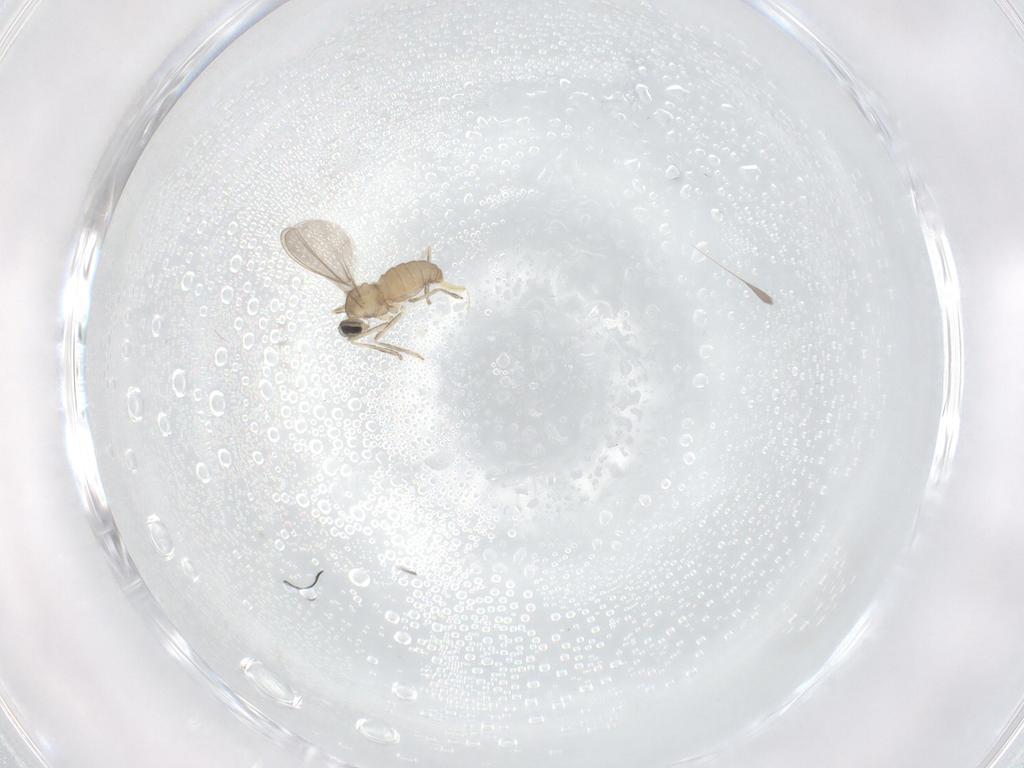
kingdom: Animalia
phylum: Arthropoda
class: Insecta
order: Diptera
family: Cecidomyiidae
